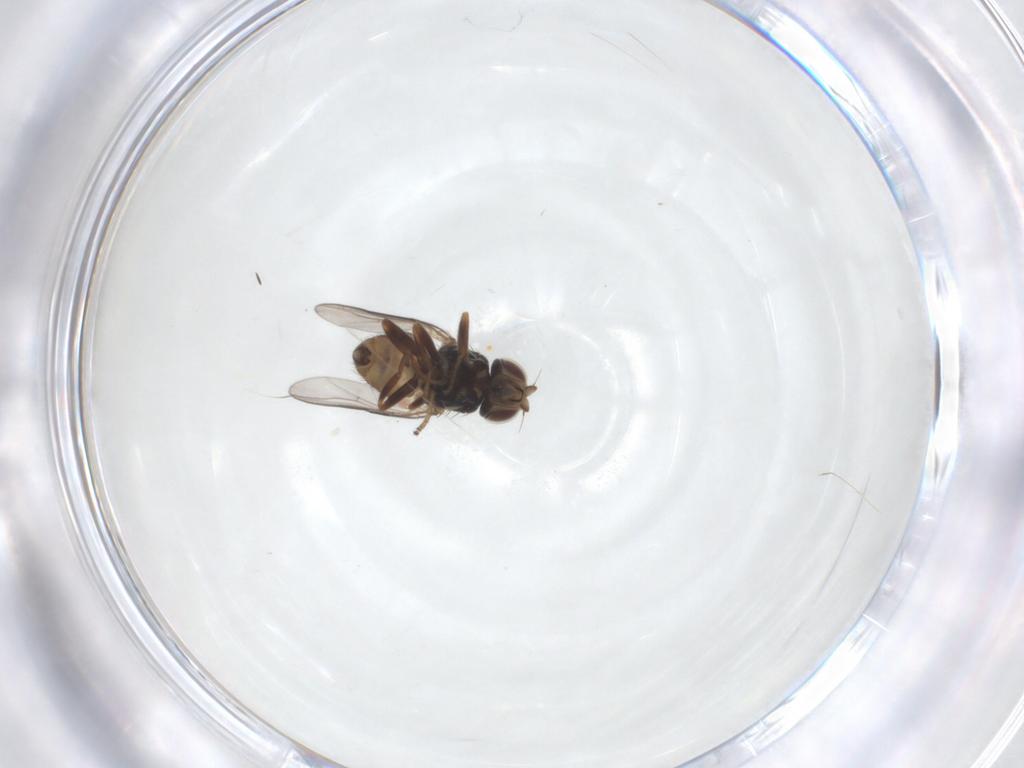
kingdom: Animalia
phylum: Arthropoda
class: Insecta
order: Diptera
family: Chloropidae
